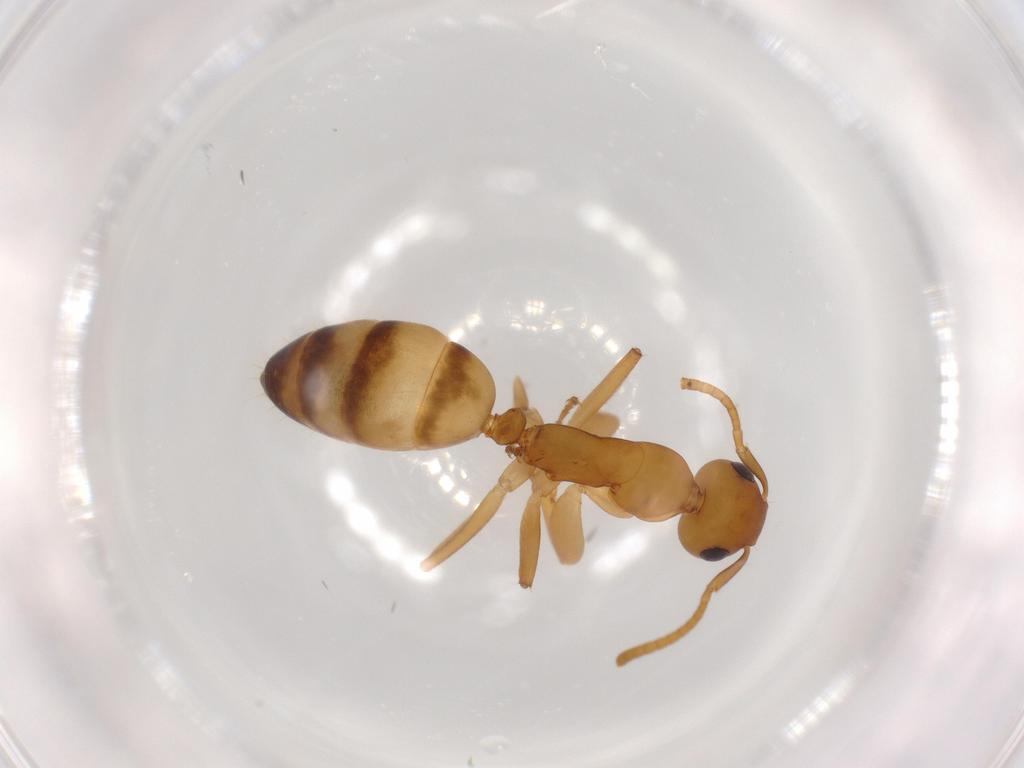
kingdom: Animalia
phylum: Arthropoda
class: Insecta
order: Hymenoptera
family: Formicidae
